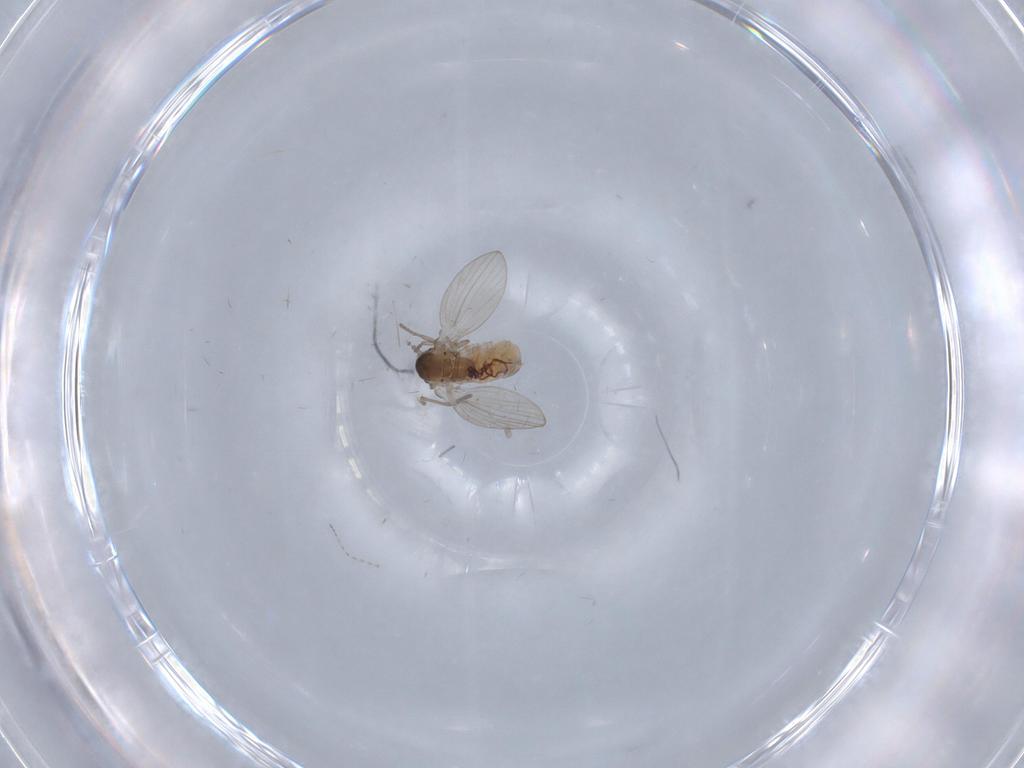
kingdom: Animalia
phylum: Arthropoda
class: Insecta
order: Diptera
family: Psychodidae
